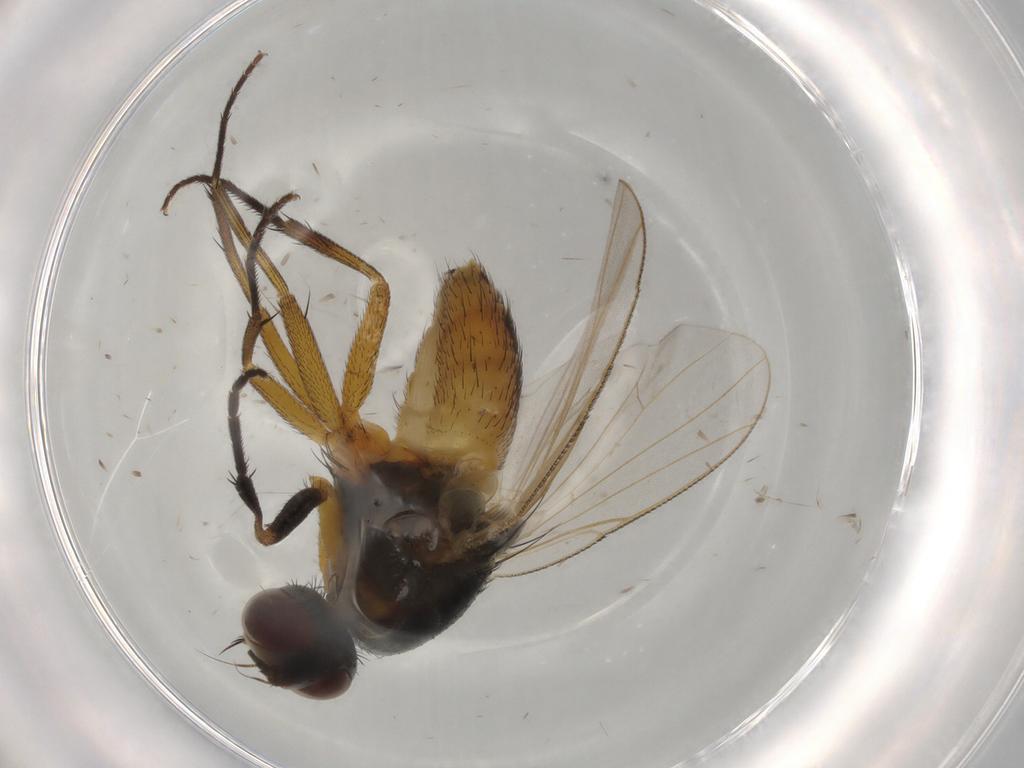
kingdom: Animalia
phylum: Arthropoda
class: Insecta
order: Diptera
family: Muscidae
